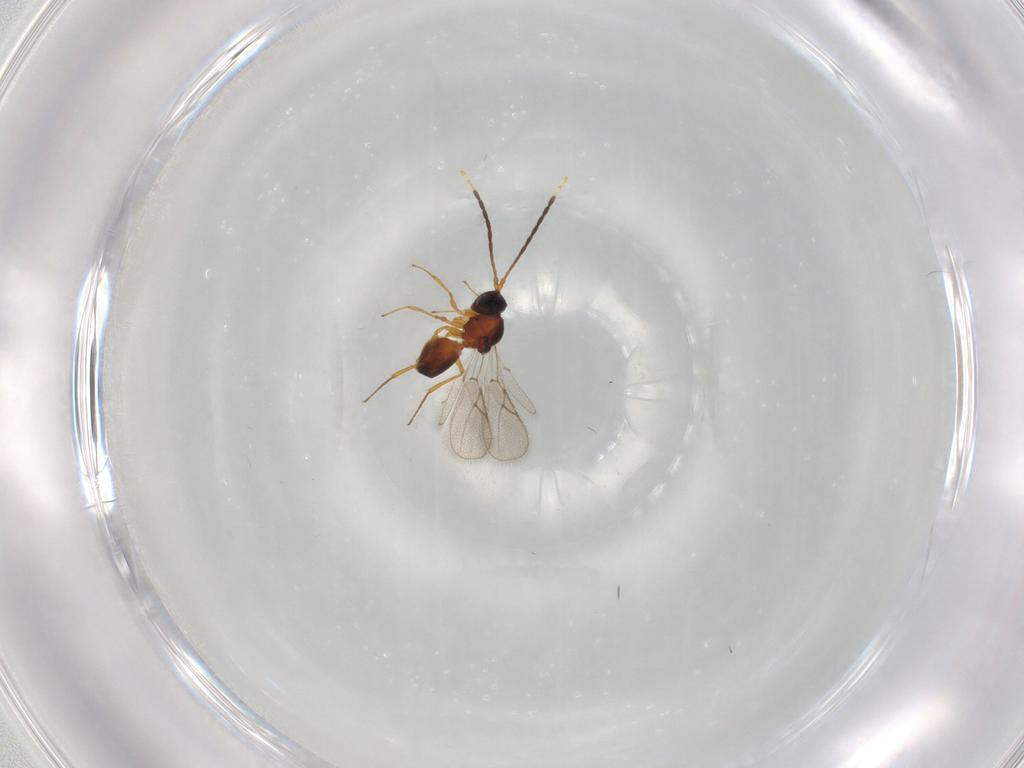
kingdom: Animalia
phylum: Arthropoda
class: Insecta
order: Hymenoptera
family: Figitidae
